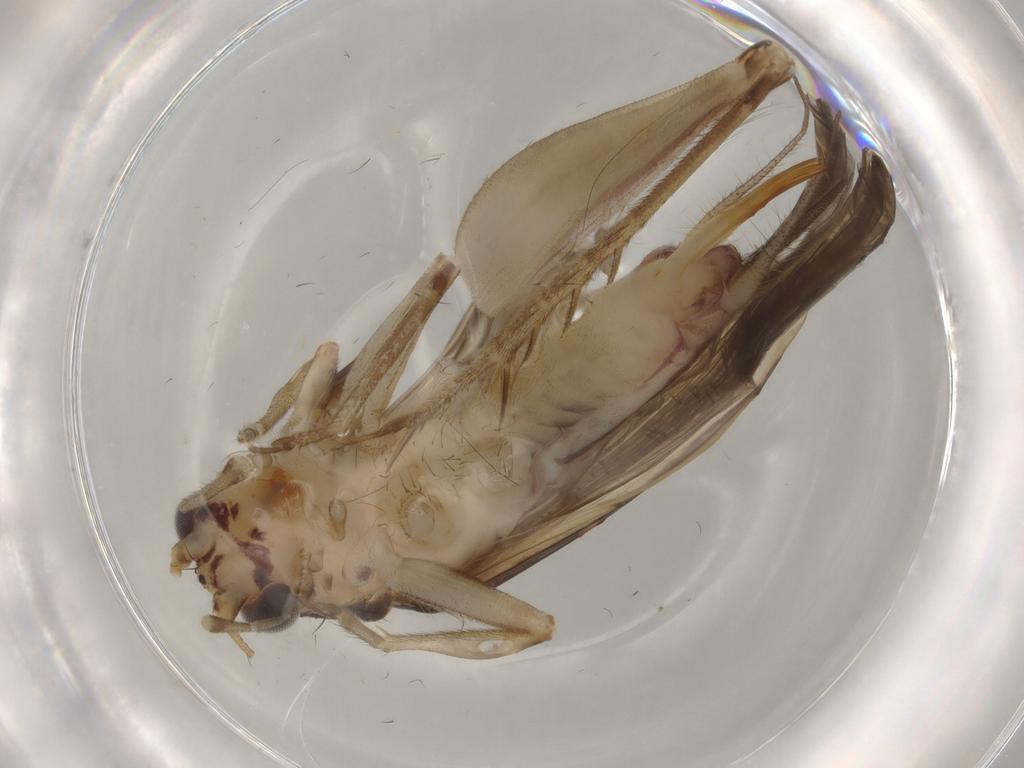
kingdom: Animalia
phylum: Arthropoda
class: Insecta
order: Orthoptera
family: Trigonidiidae
